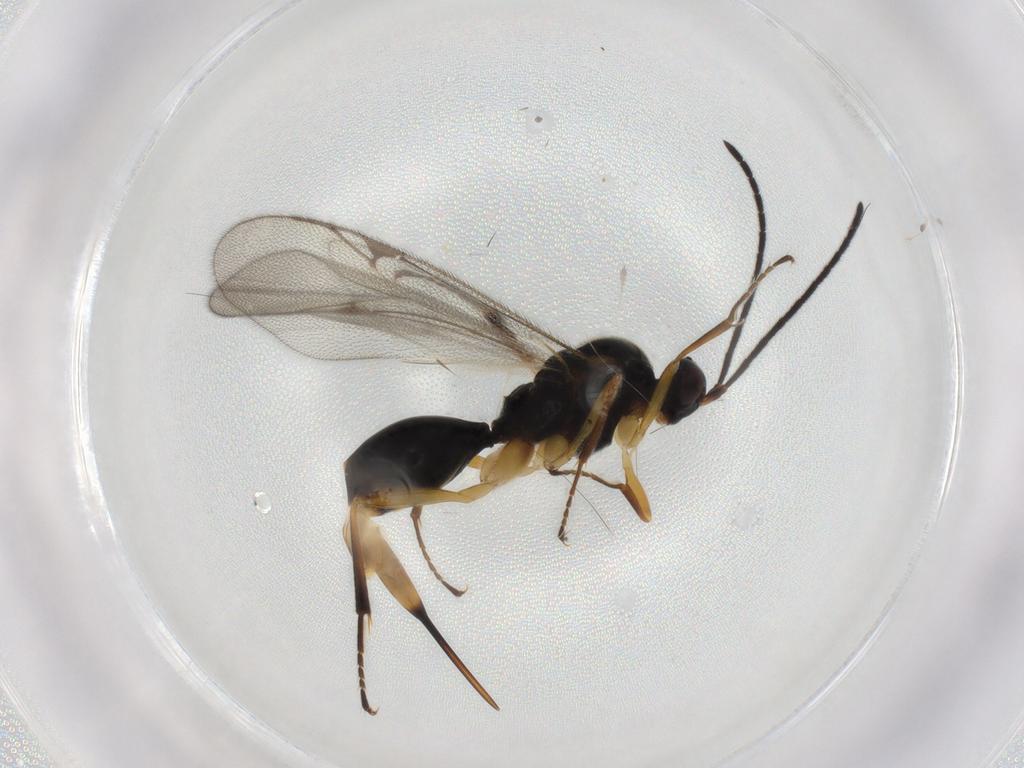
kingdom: Animalia
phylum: Arthropoda
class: Insecta
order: Hymenoptera
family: Proctotrupidae
